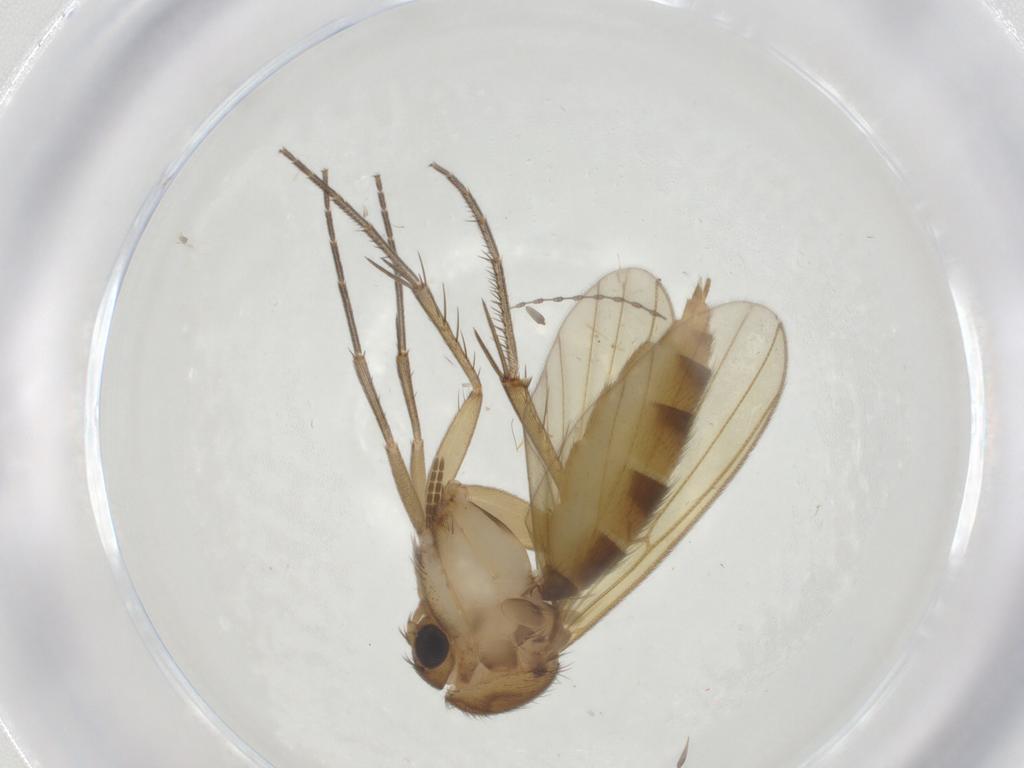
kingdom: Animalia
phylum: Arthropoda
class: Insecta
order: Diptera
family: Mycetophilidae
